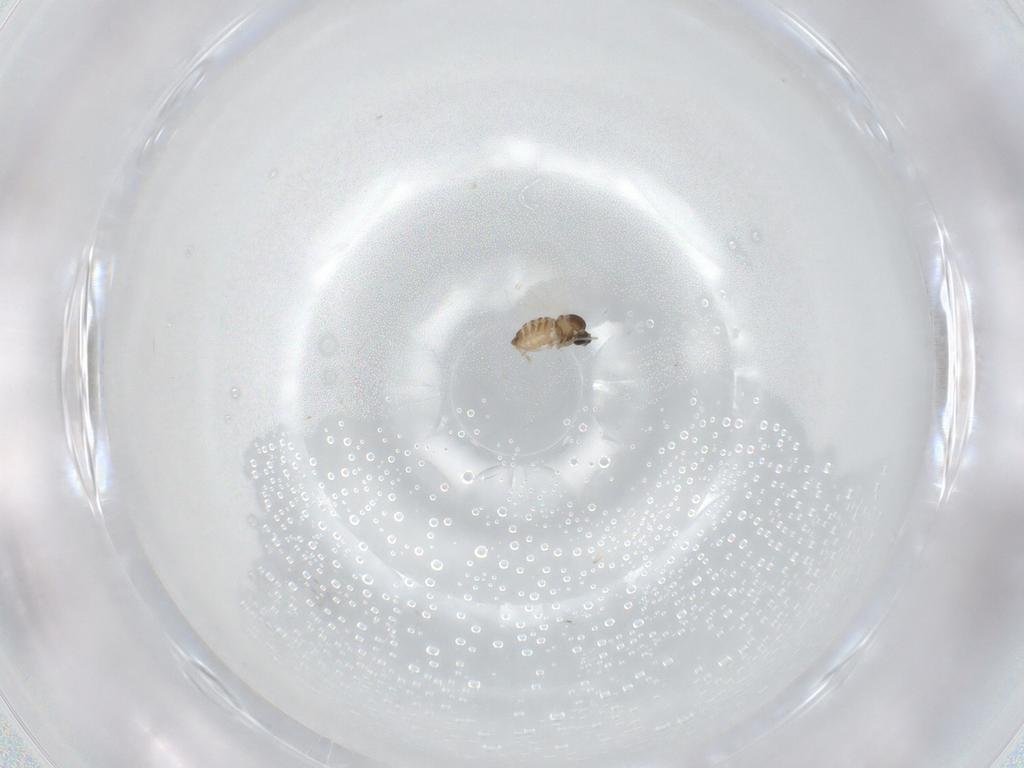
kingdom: Animalia
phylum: Arthropoda
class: Insecta
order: Diptera
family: Cecidomyiidae
